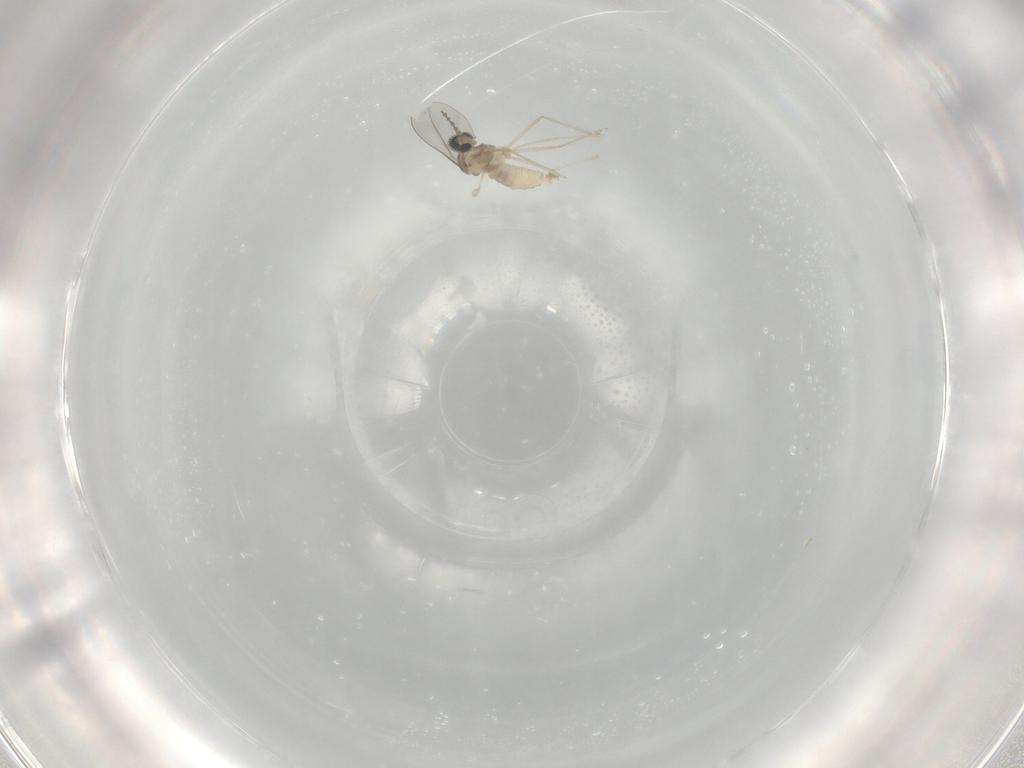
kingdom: Animalia
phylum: Arthropoda
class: Insecta
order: Diptera
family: Cecidomyiidae
